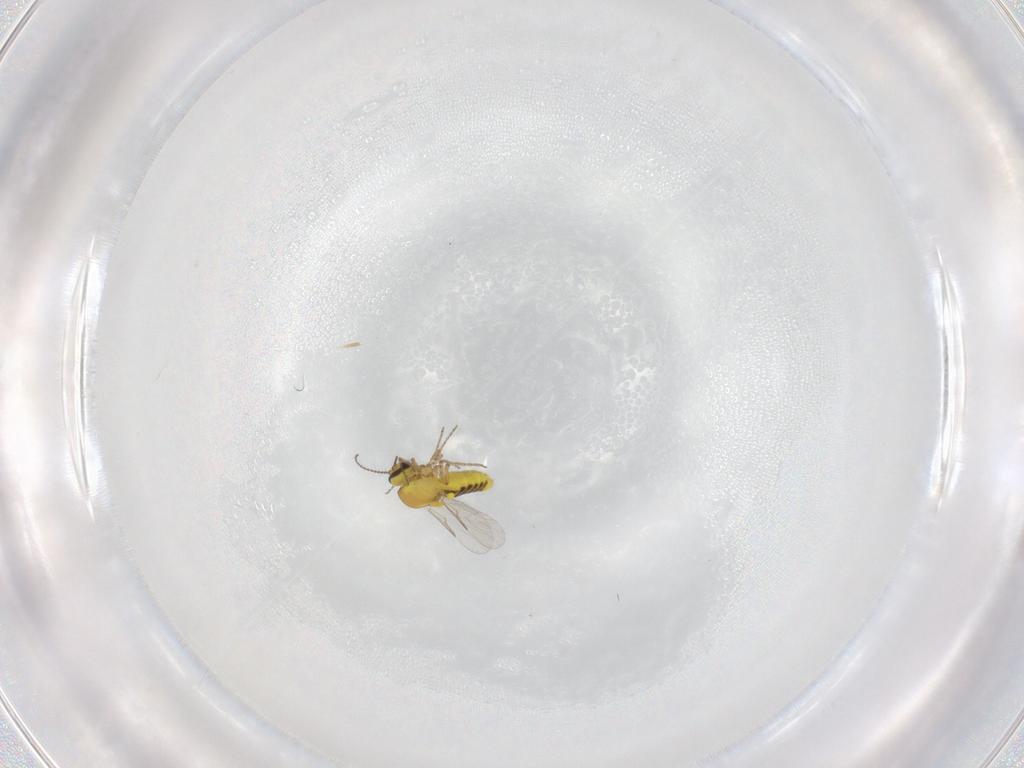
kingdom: Animalia
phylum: Arthropoda
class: Insecta
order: Diptera
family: Ceratopogonidae
